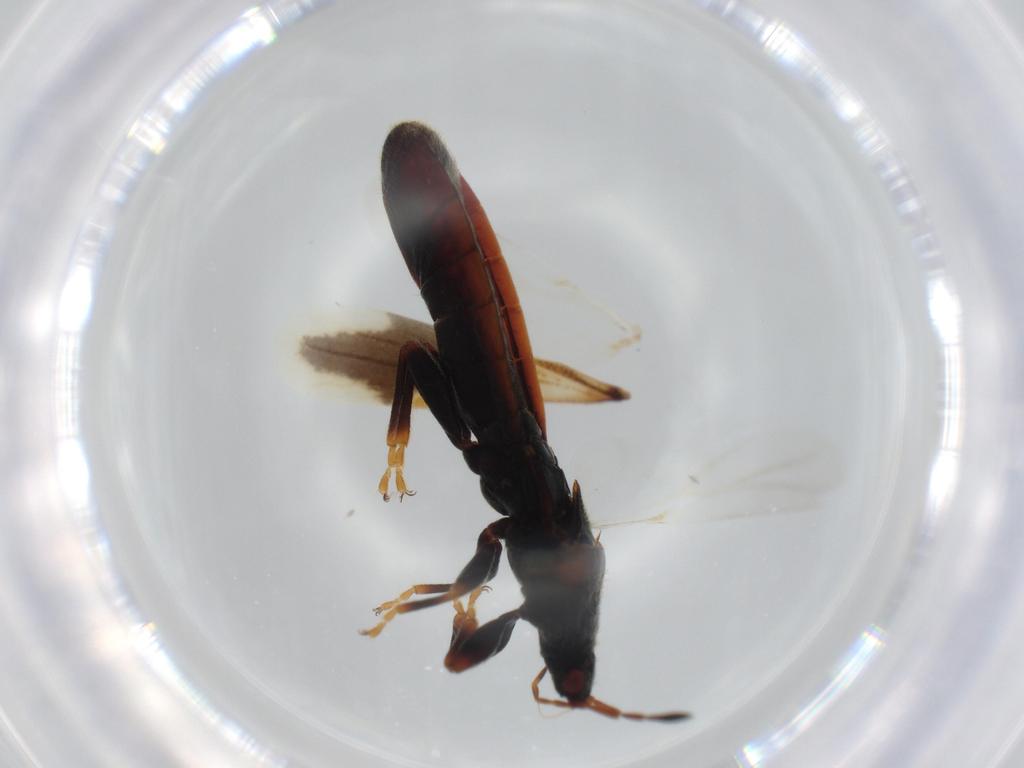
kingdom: Animalia
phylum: Arthropoda
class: Insecta
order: Hemiptera
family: Blissidae
